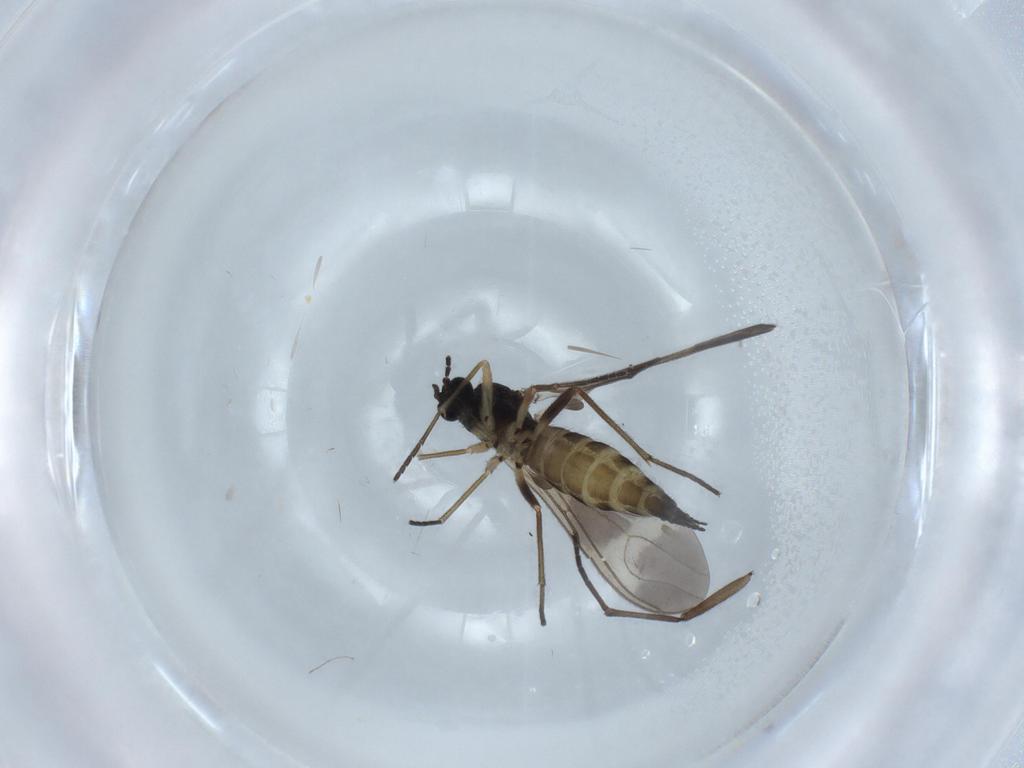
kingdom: Animalia
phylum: Arthropoda
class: Insecta
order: Diptera
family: Sciaridae
